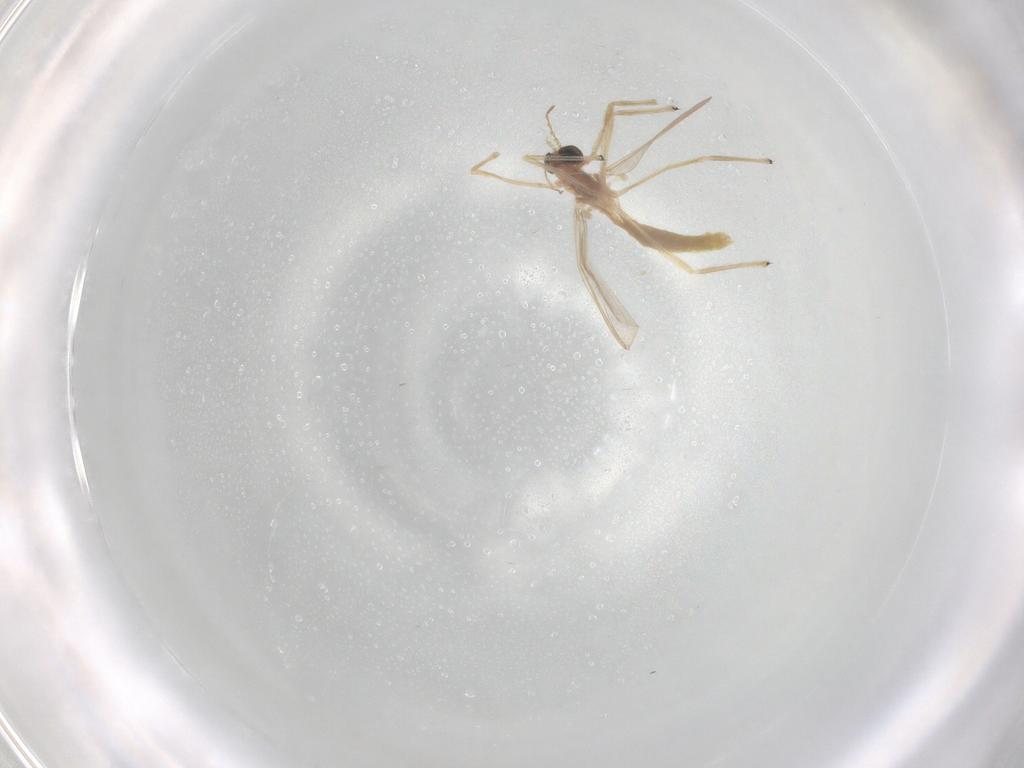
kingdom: Animalia
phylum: Arthropoda
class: Insecta
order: Diptera
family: Chironomidae
